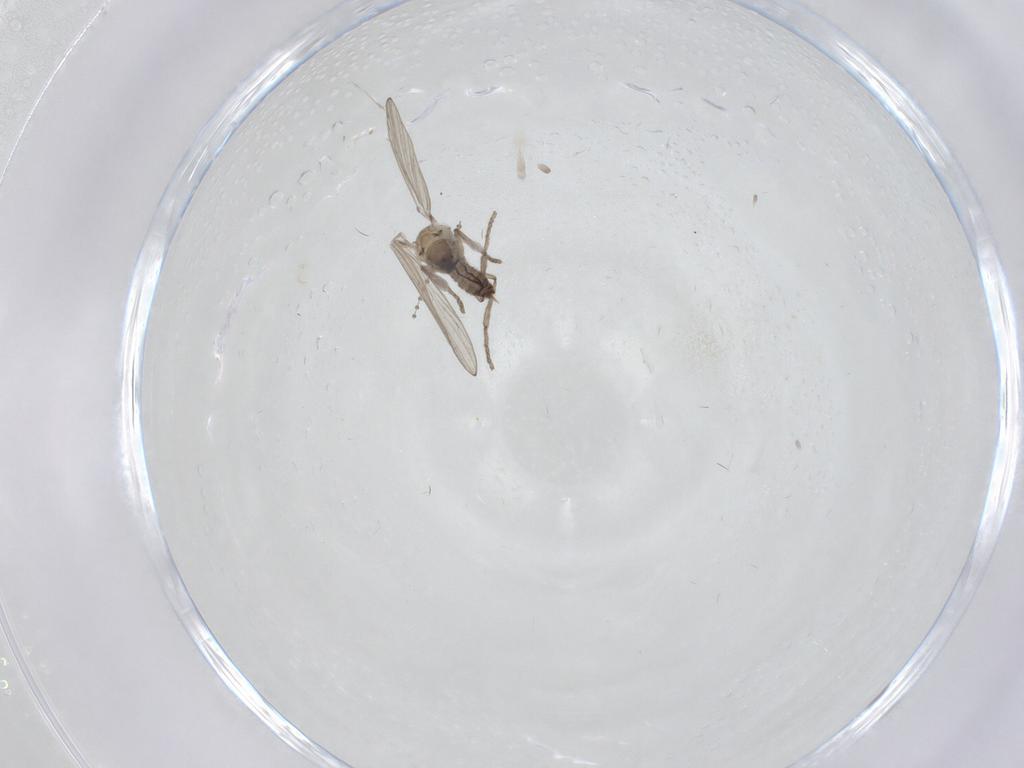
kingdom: Animalia
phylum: Arthropoda
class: Insecta
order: Diptera
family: Psychodidae
